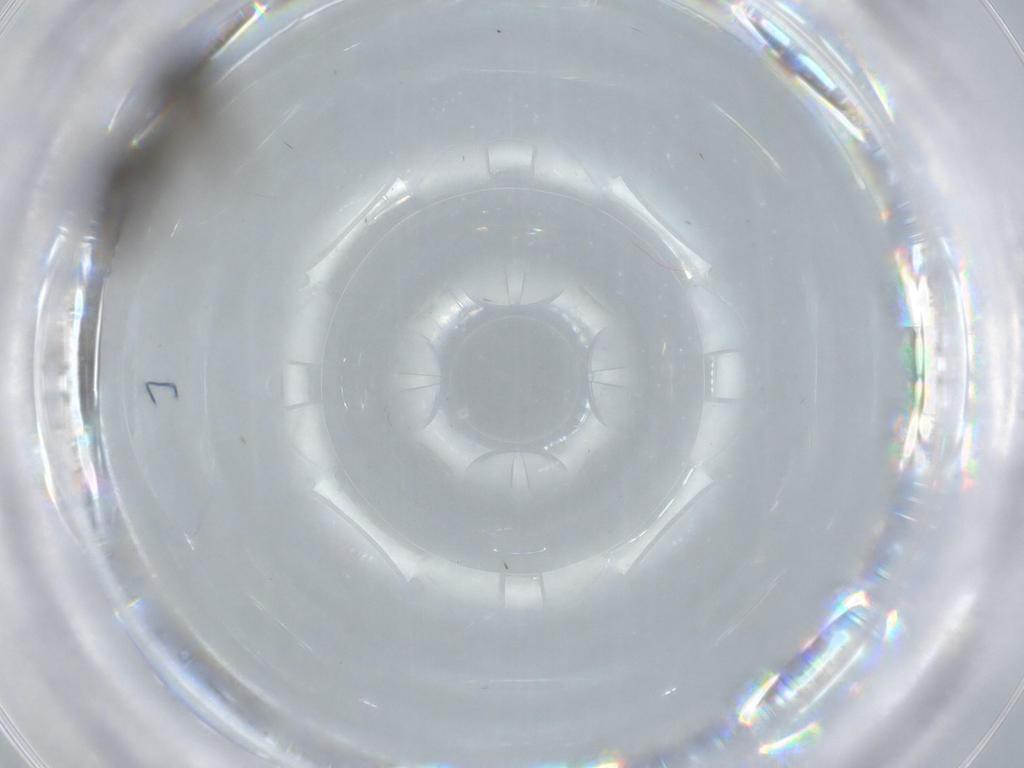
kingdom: Animalia
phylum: Arthropoda
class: Insecta
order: Diptera
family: Sciaridae
